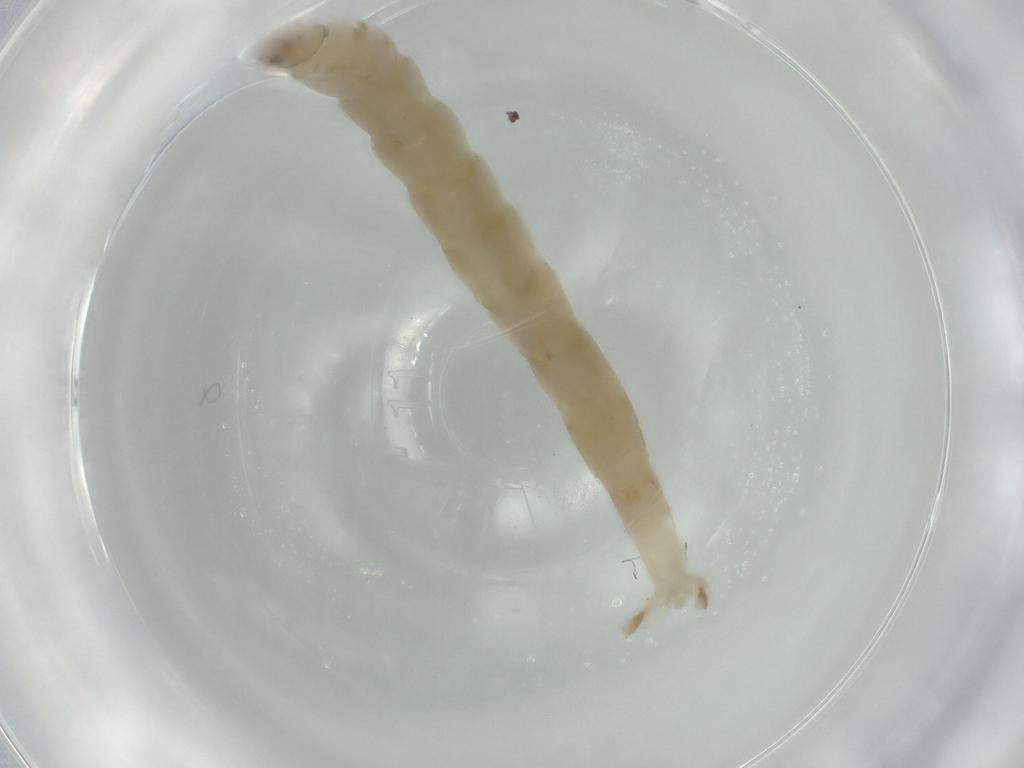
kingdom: Animalia
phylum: Arthropoda
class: Insecta
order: Diptera
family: Chironomidae
